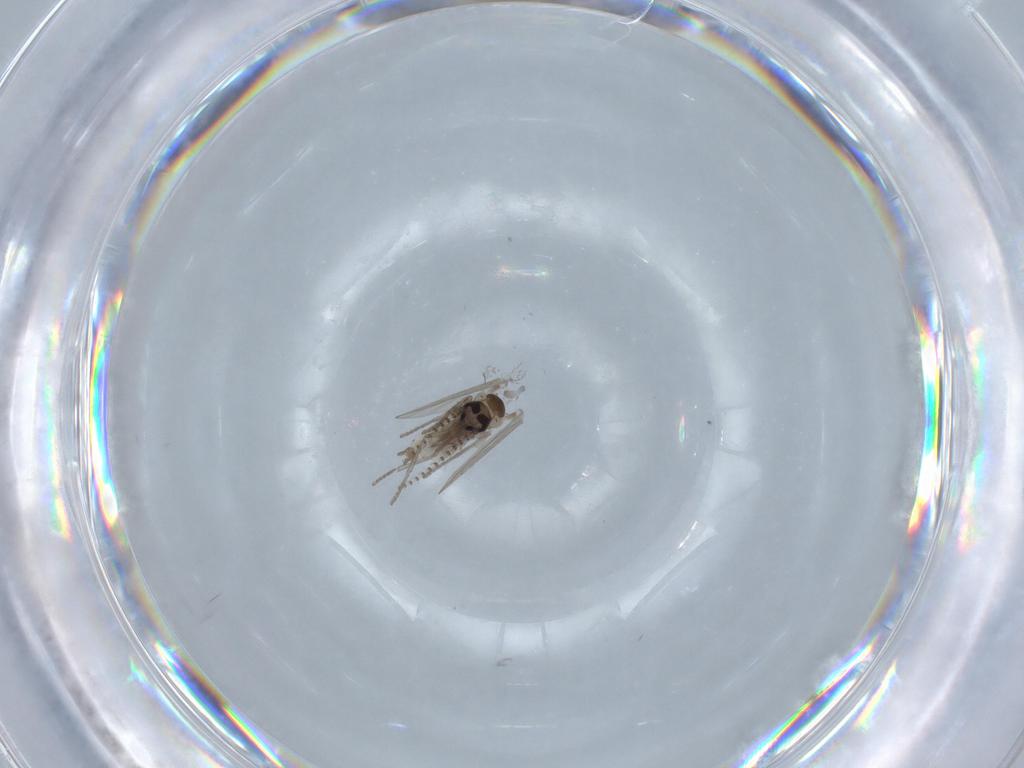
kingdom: Animalia
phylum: Arthropoda
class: Insecta
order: Diptera
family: Psychodidae
